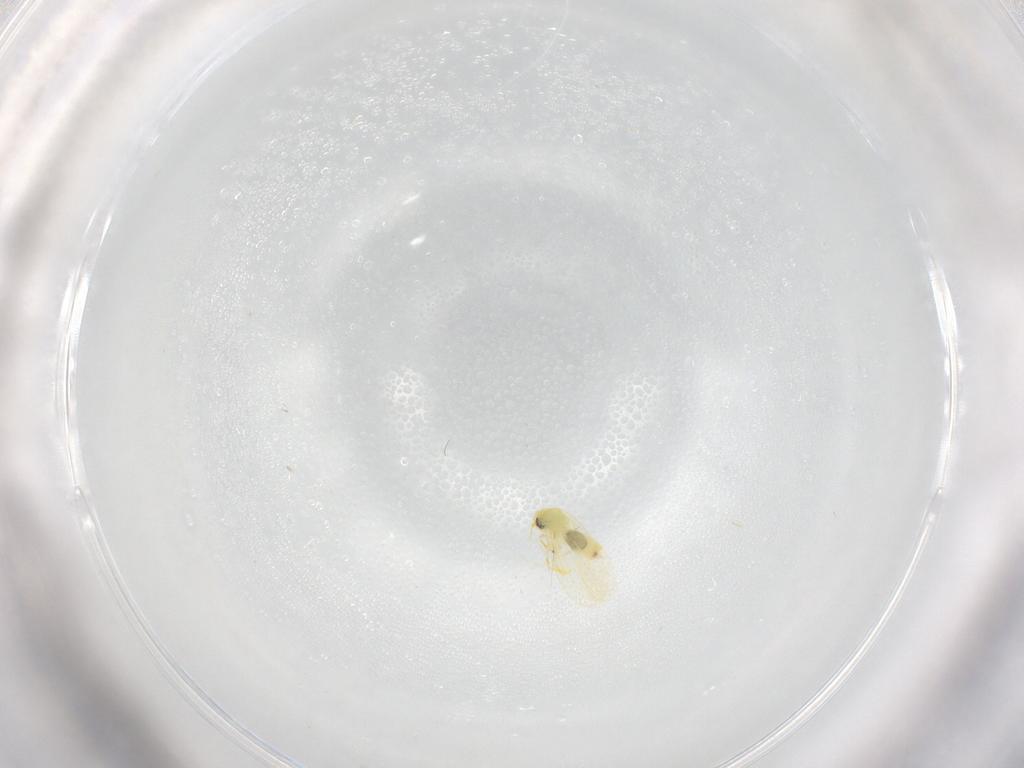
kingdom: Animalia
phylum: Arthropoda
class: Insecta
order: Hemiptera
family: Aleyrodidae
